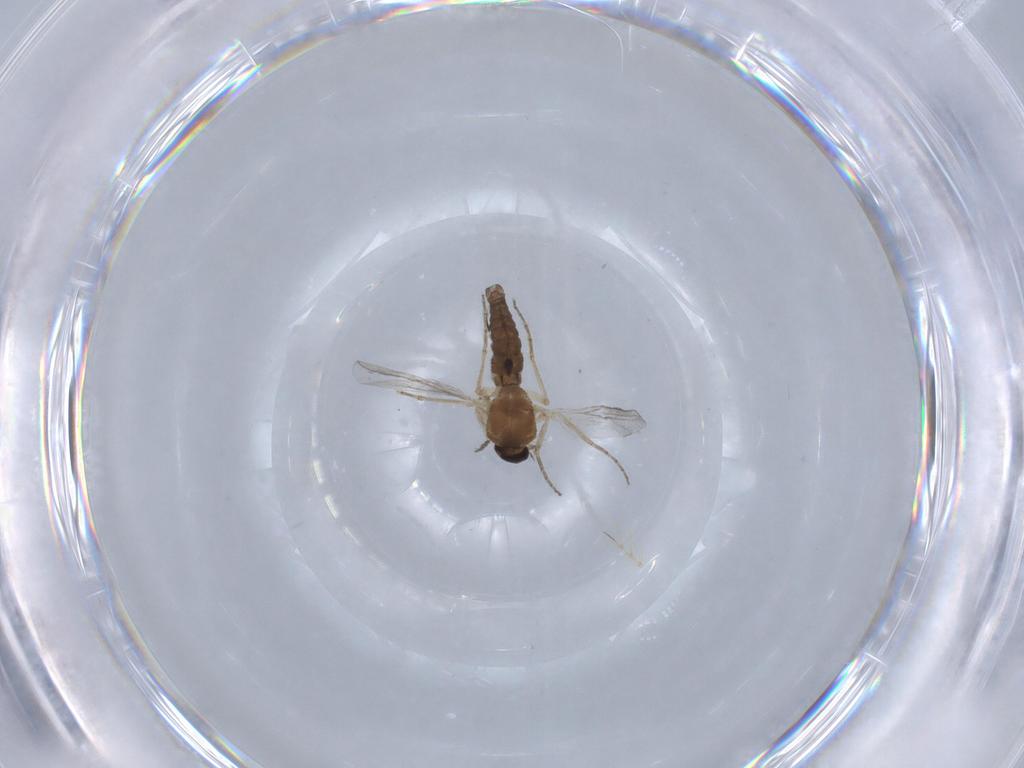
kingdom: Animalia
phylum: Arthropoda
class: Insecta
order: Diptera
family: Ceratopogonidae
